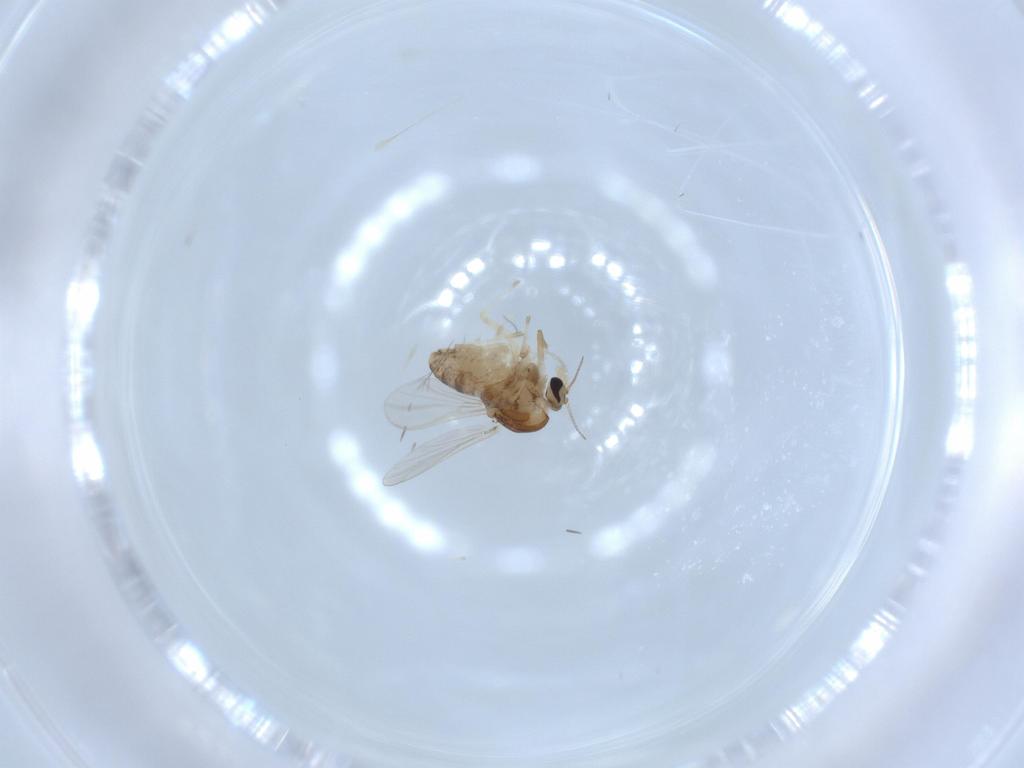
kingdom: Animalia
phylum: Arthropoda
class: Insecta
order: Diptera
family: Chironomidae
